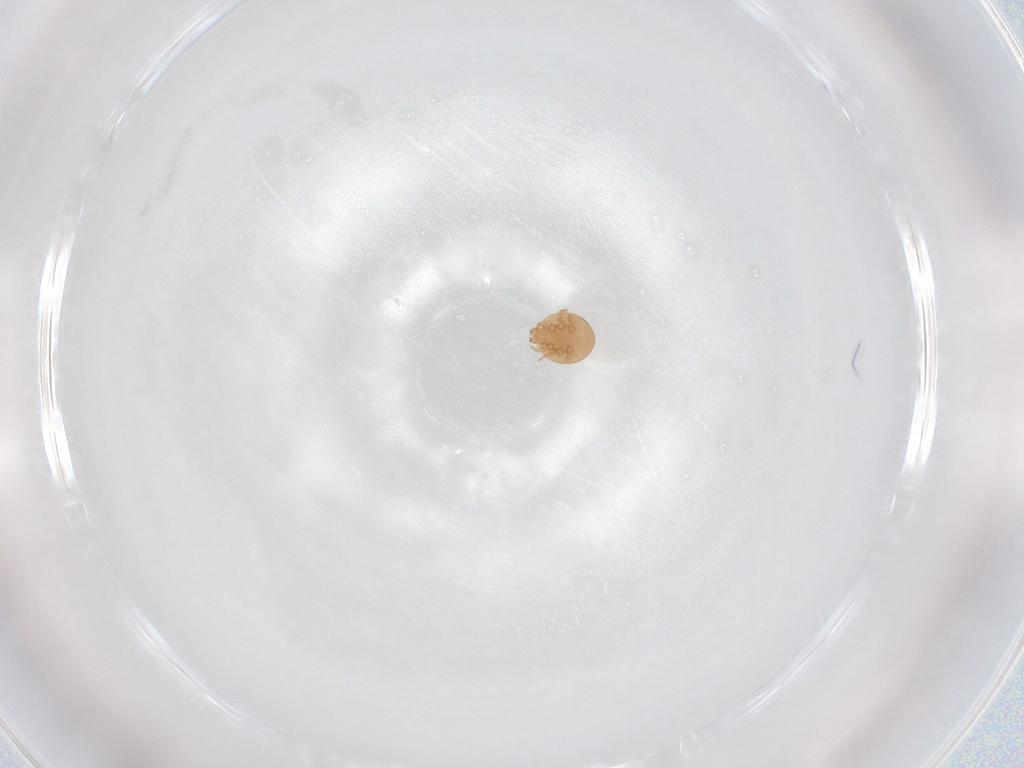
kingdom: Animalia
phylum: Arthropoda
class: Arachnida
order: Mesostigmata
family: Trematuridae
